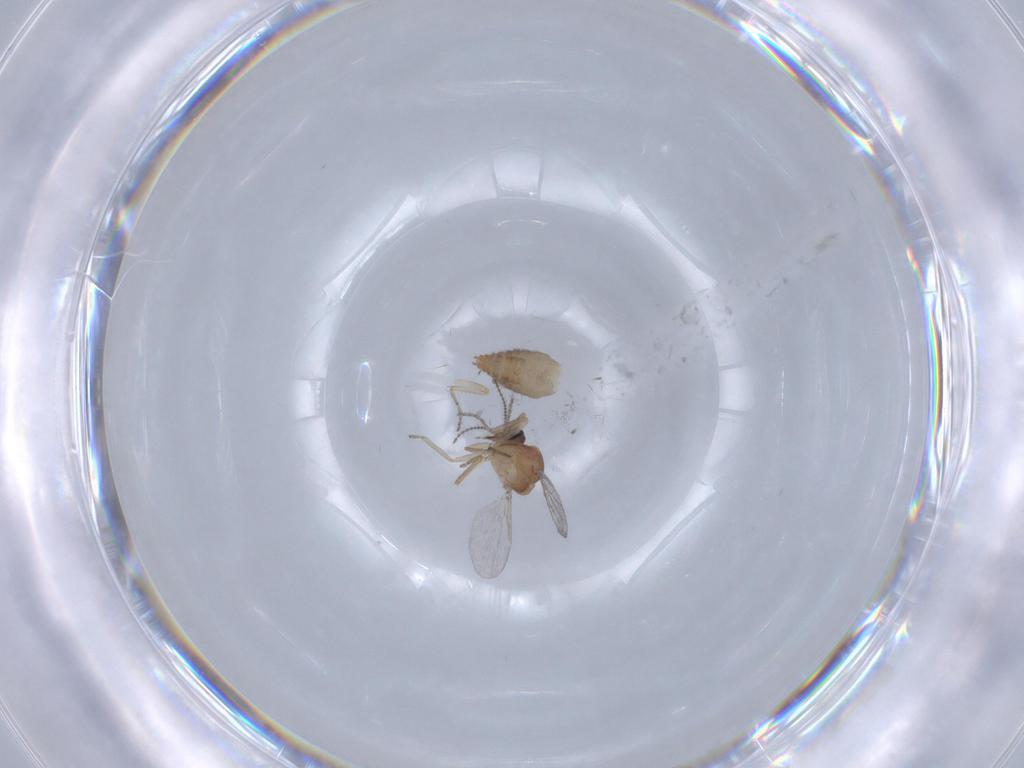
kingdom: Animalia
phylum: Arthropoda
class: Insecta
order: Diptera
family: Ceratopogonidae
